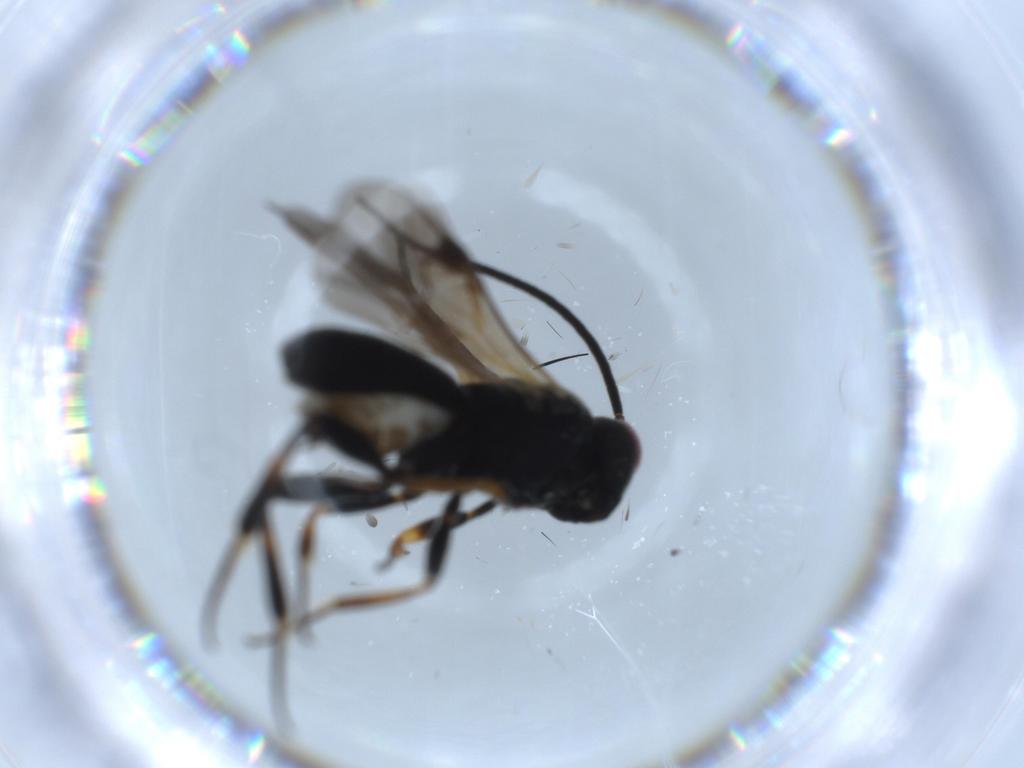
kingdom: Animalia
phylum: Arthropoda
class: Insecta
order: Hymenoptera
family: Braconidae
